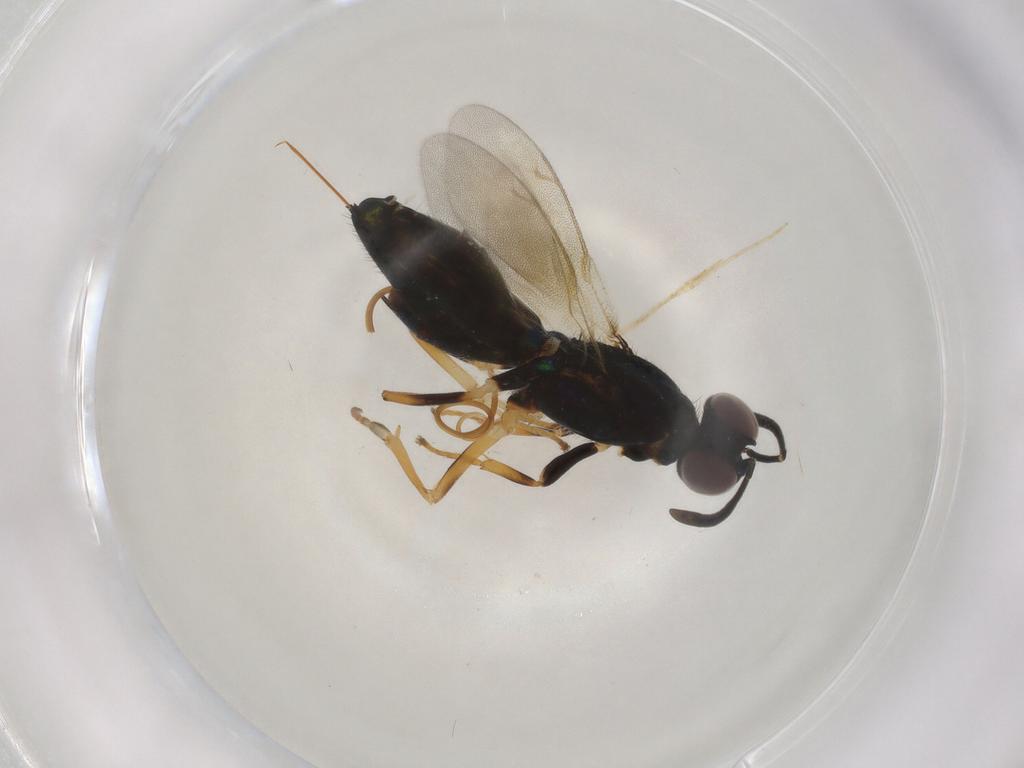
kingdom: Animalia
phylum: Arthropoda
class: Insecta
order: Hymenoptera
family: Eupelmidae
